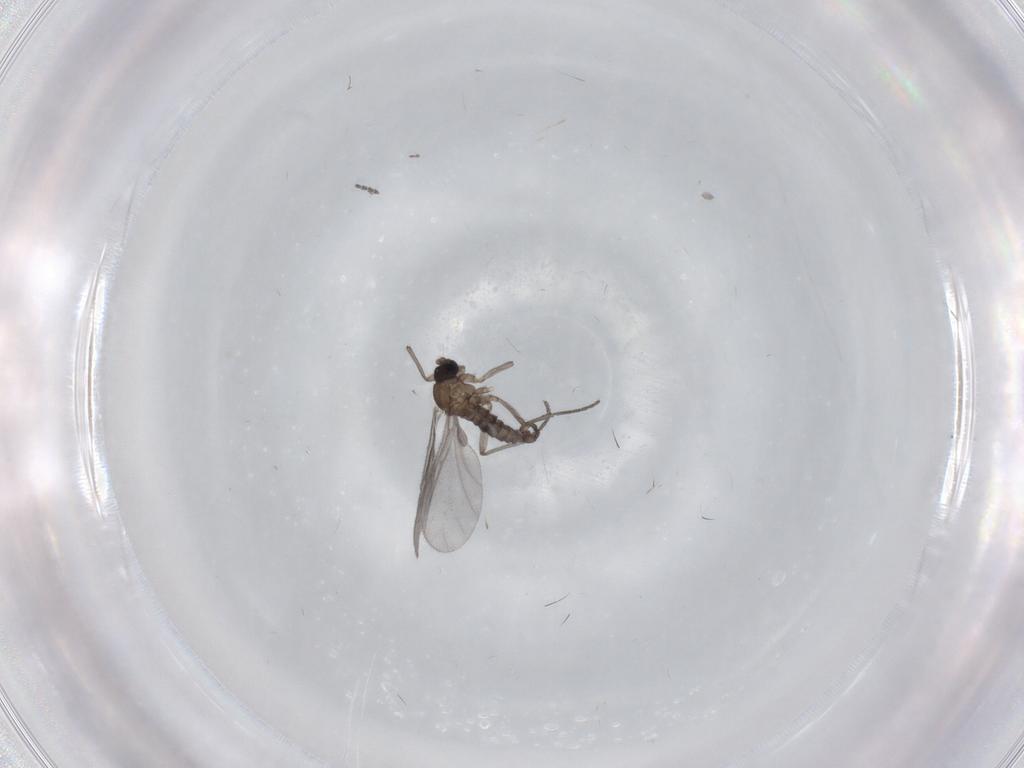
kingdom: Animalia
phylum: Arthropoda
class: Insecta
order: Diptera
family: Sciaridae
